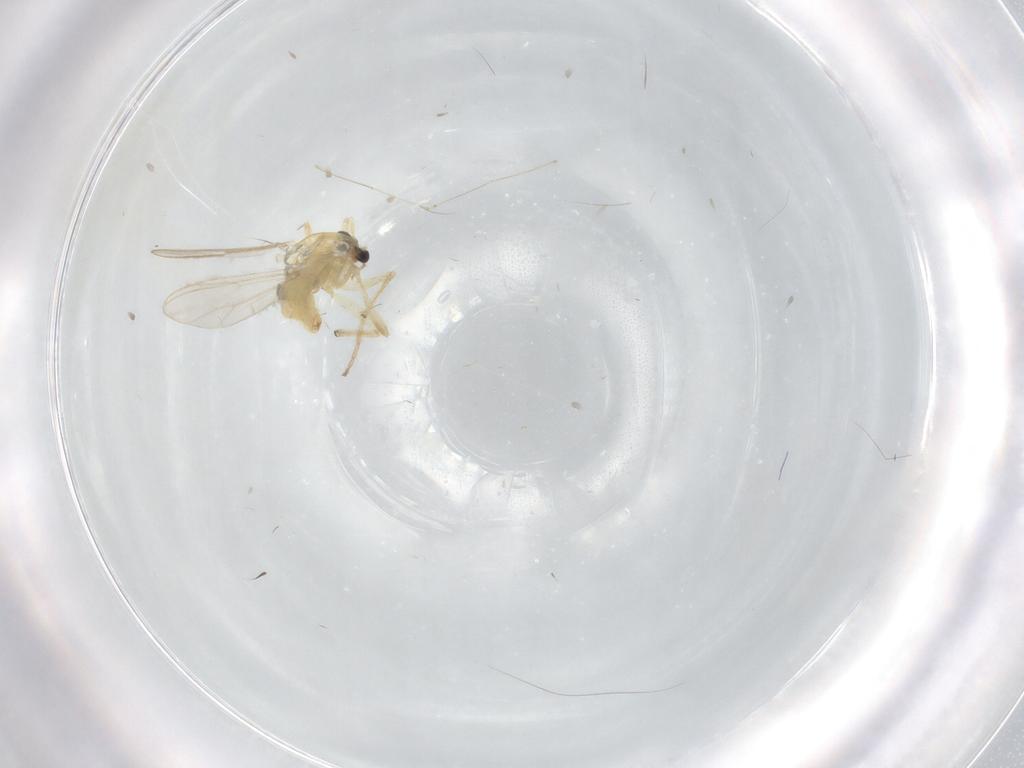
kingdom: Animalia
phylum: Arthropoda
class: Insecta
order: Diptera
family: Chironomidae
